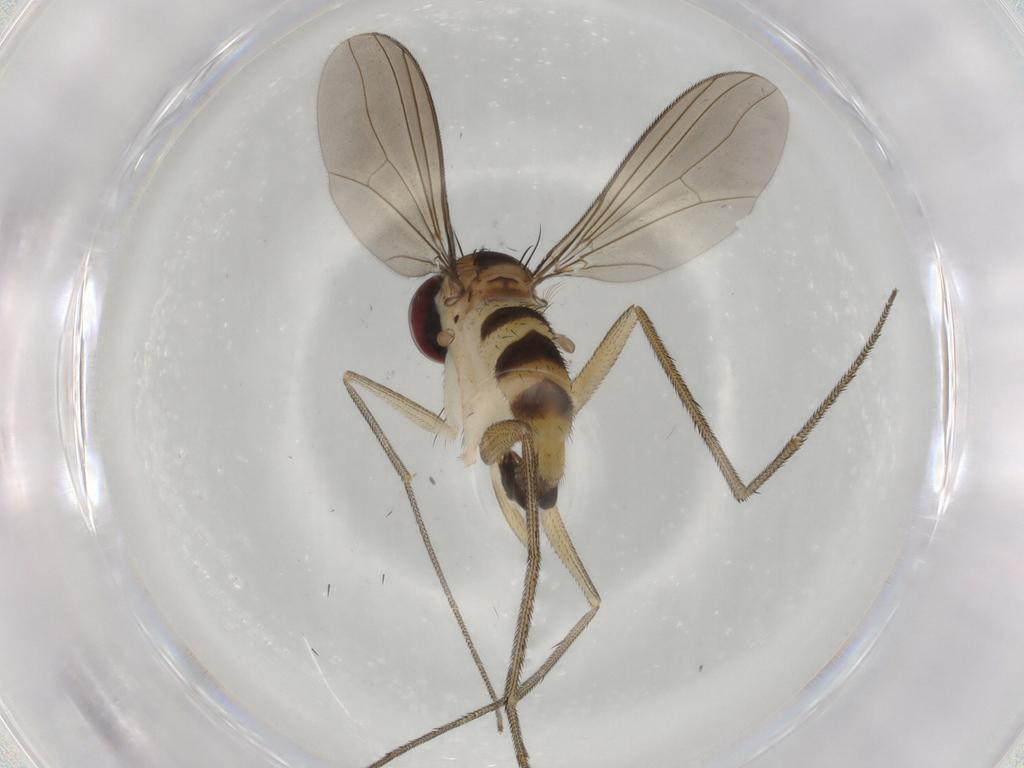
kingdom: Animalia
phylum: Arthropoda
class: Insecta
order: Diptera
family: Dolichopodidae
